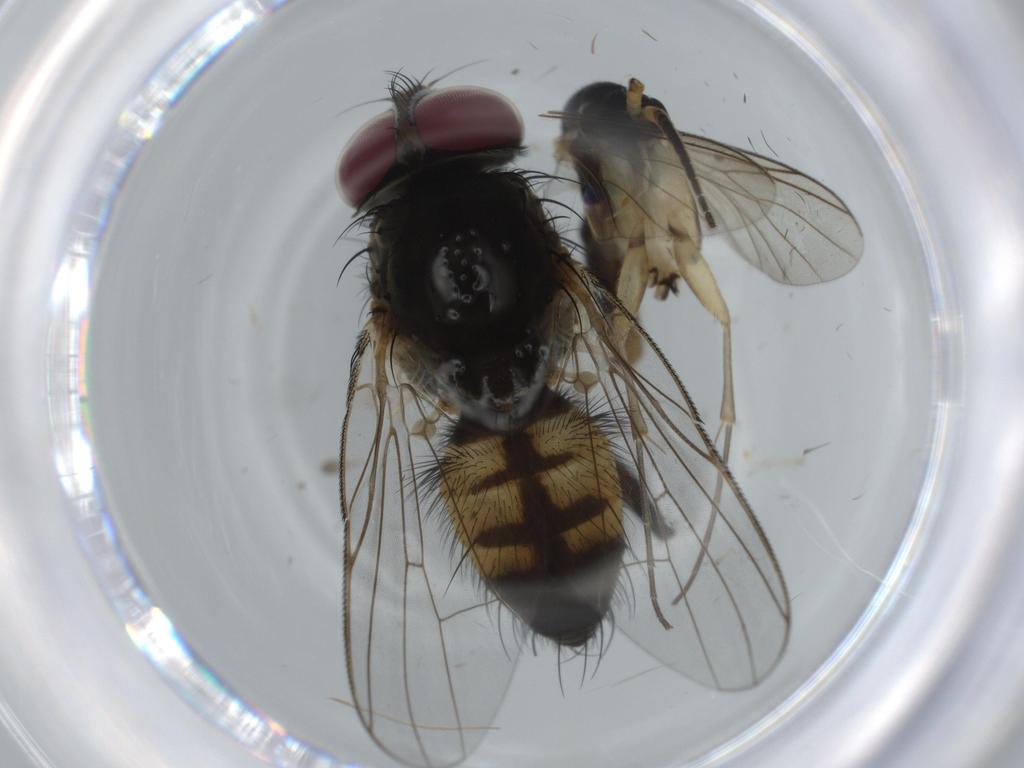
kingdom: Animalia
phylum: Arthropoda
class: Insecta
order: Diptera
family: Fannia
